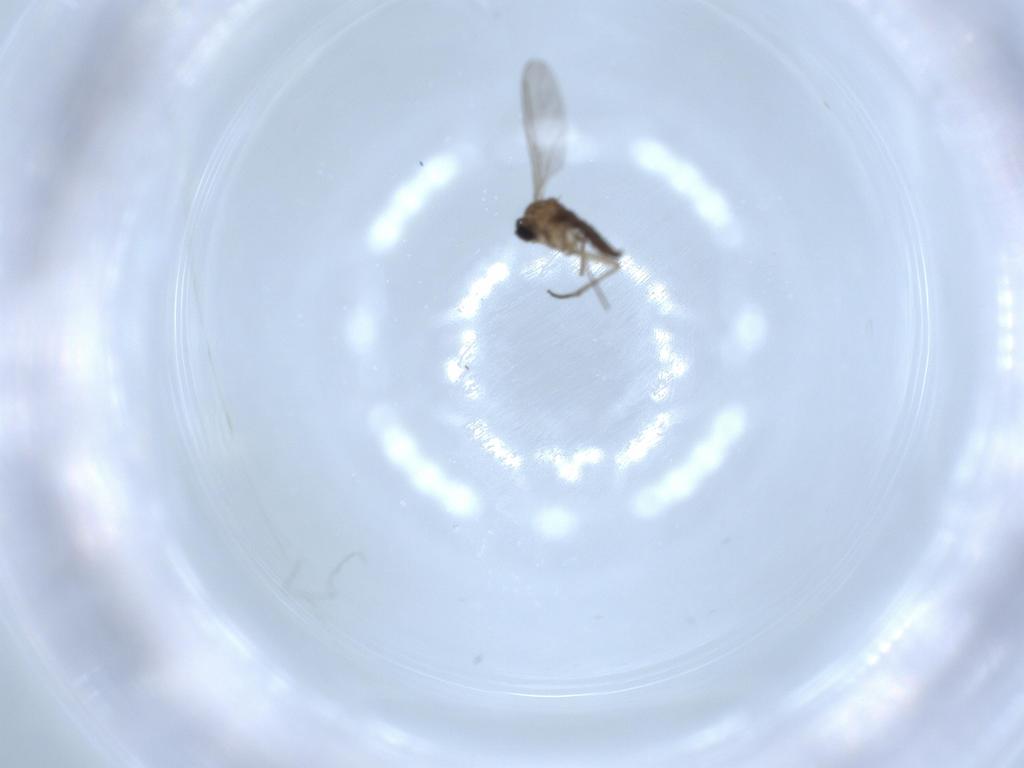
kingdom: Animalia
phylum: Arthropoda
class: Insecta
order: Diptera
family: Sciaridae
